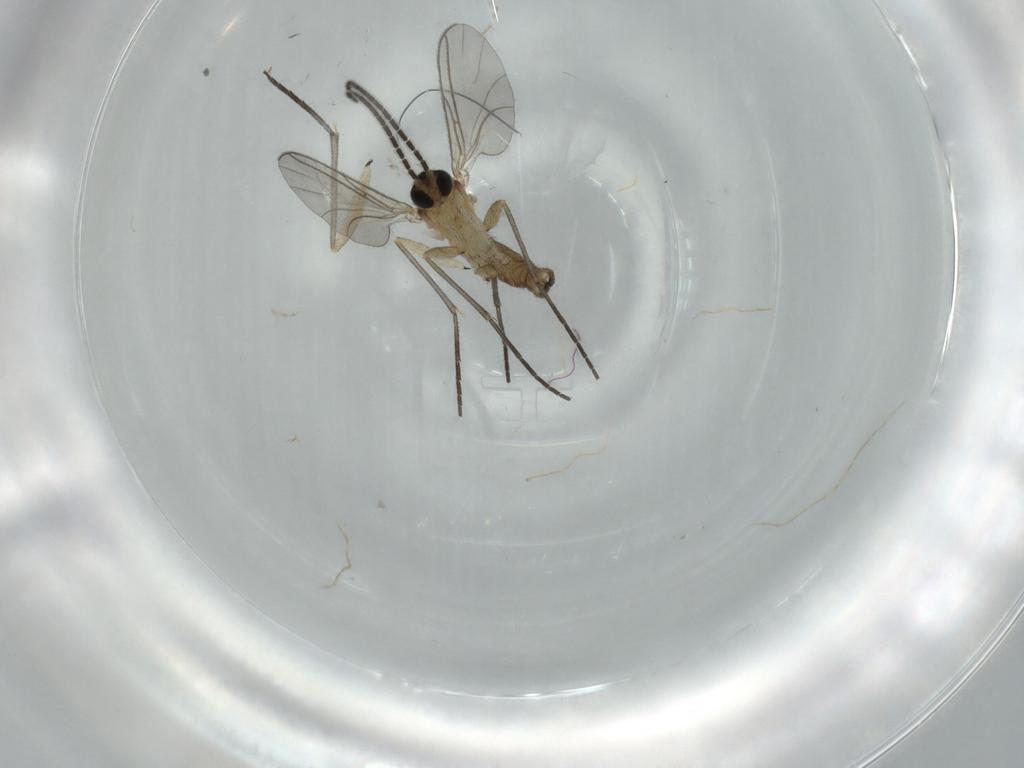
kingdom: Animalia
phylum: Arthropoda
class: Insecta
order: Diptera
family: Sciaridae
